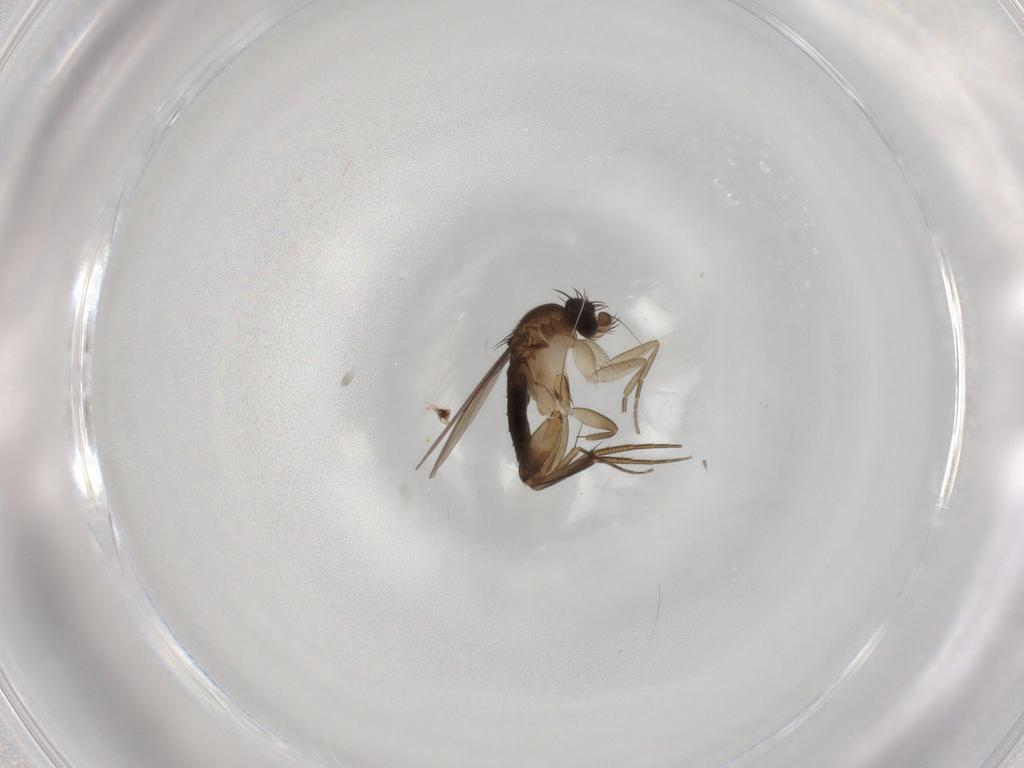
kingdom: Animalia
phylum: Arthropoda
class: Insecta
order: Diptera
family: Phoridae
